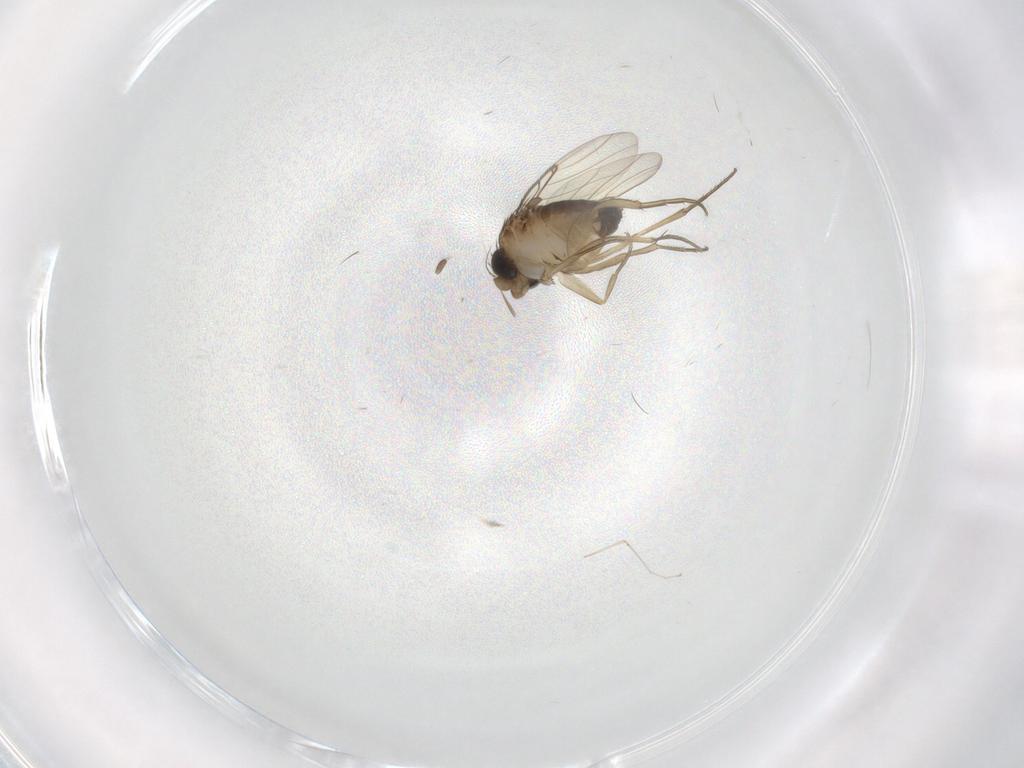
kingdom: Animalia
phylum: Arthropoda
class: Insecta
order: Diptera
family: Phoridae
